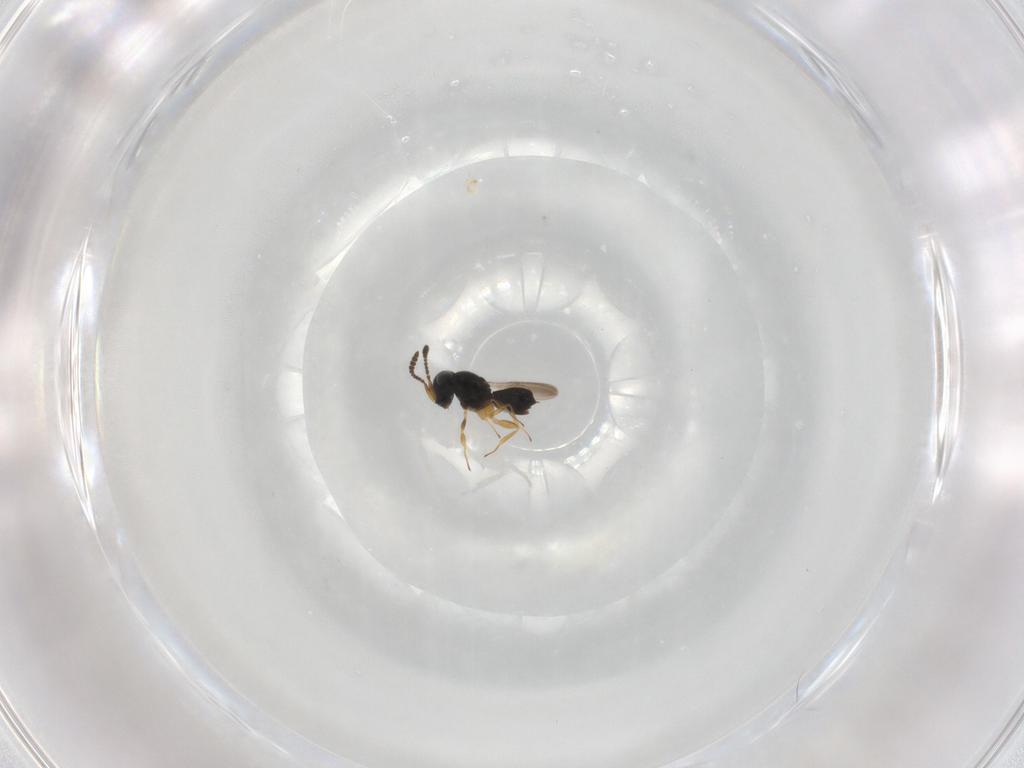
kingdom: Animalia
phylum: Arthropoda
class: Insecta
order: Hymenoptera
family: Scelionidae
